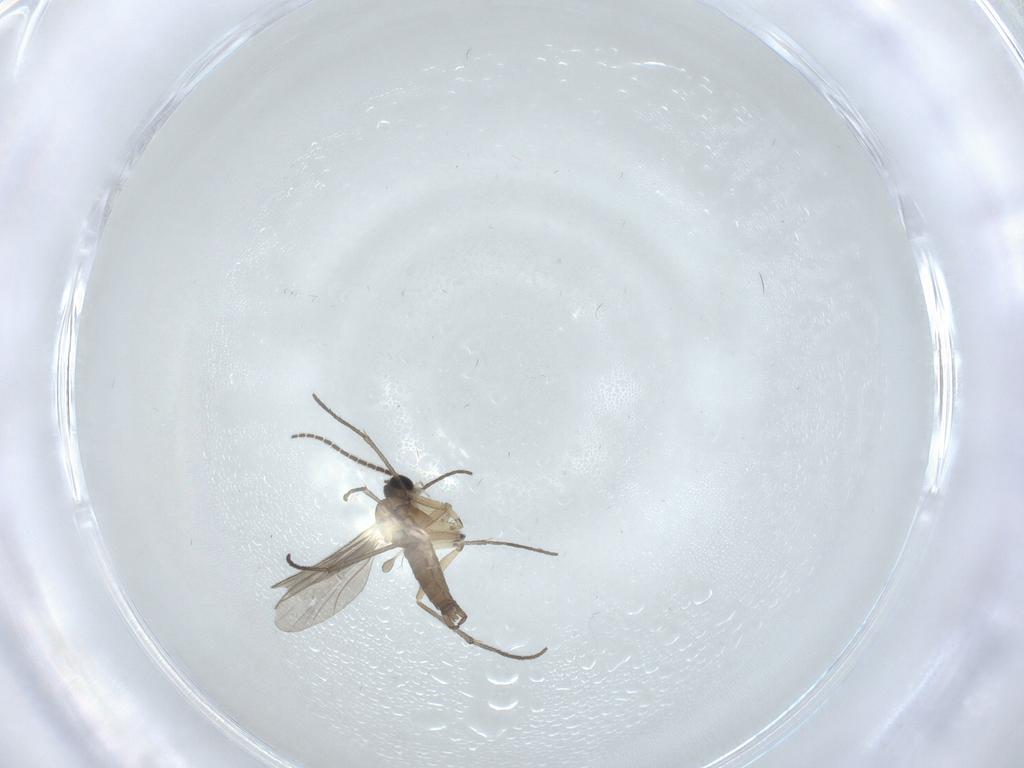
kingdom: Animalia
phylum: Arthropoda
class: Insecta
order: Diptera
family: Sciaridae
